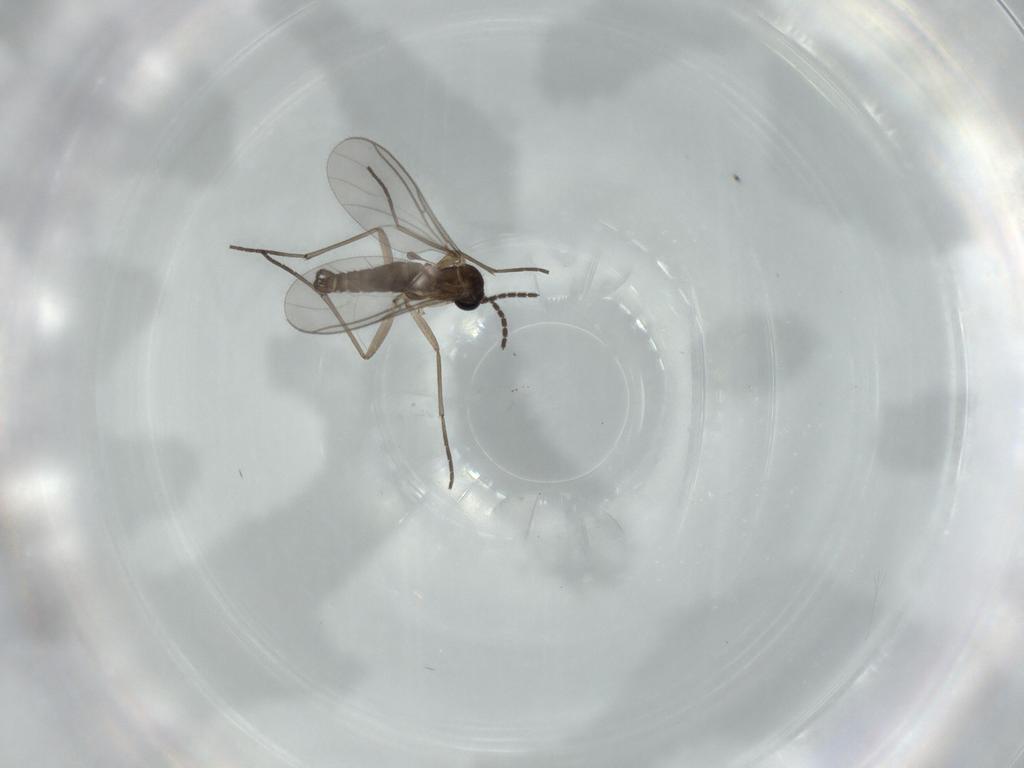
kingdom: Animalia
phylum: Arthropoda
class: Insecta
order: Diptera
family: Sciaridae
